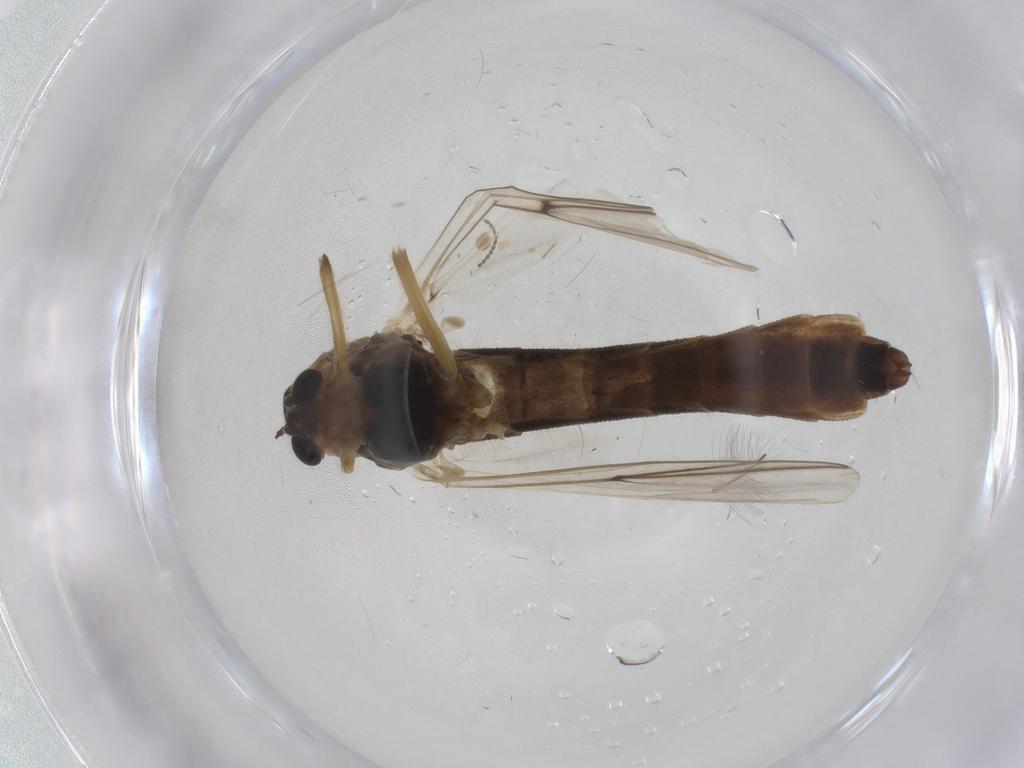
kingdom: Animalia
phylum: Arthropoda
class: Insecta
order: Diptera
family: Chironomidae
